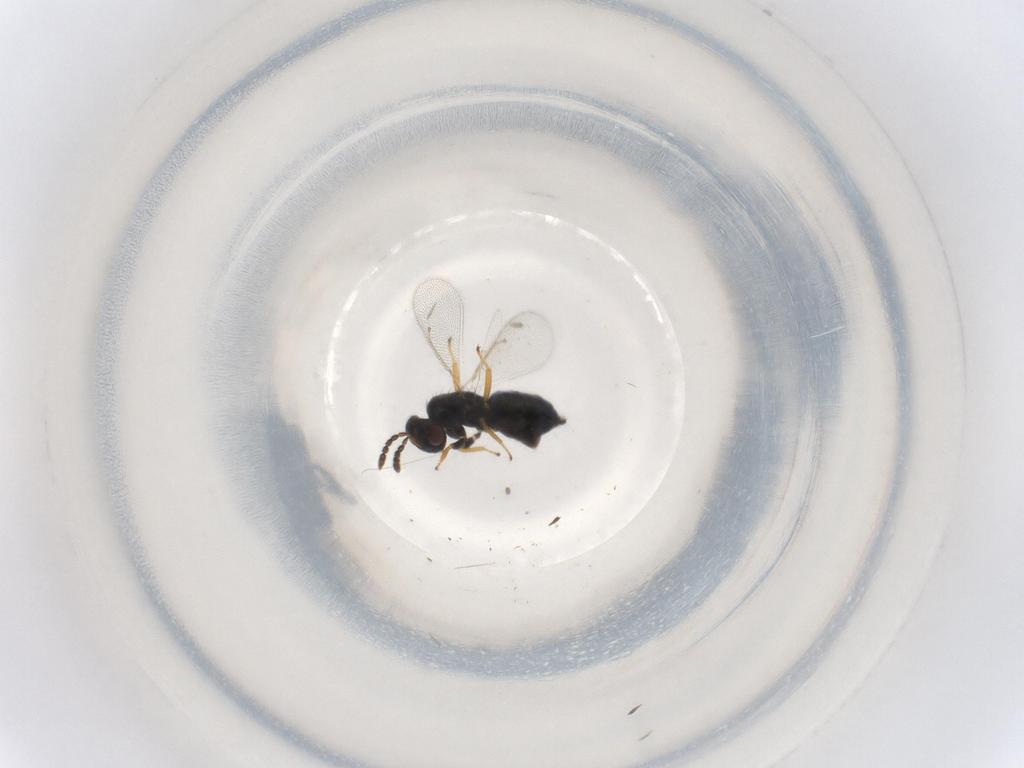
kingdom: Animalia
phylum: Arthropoda
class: Insecta
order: Hymenoptera
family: Eulophidae
